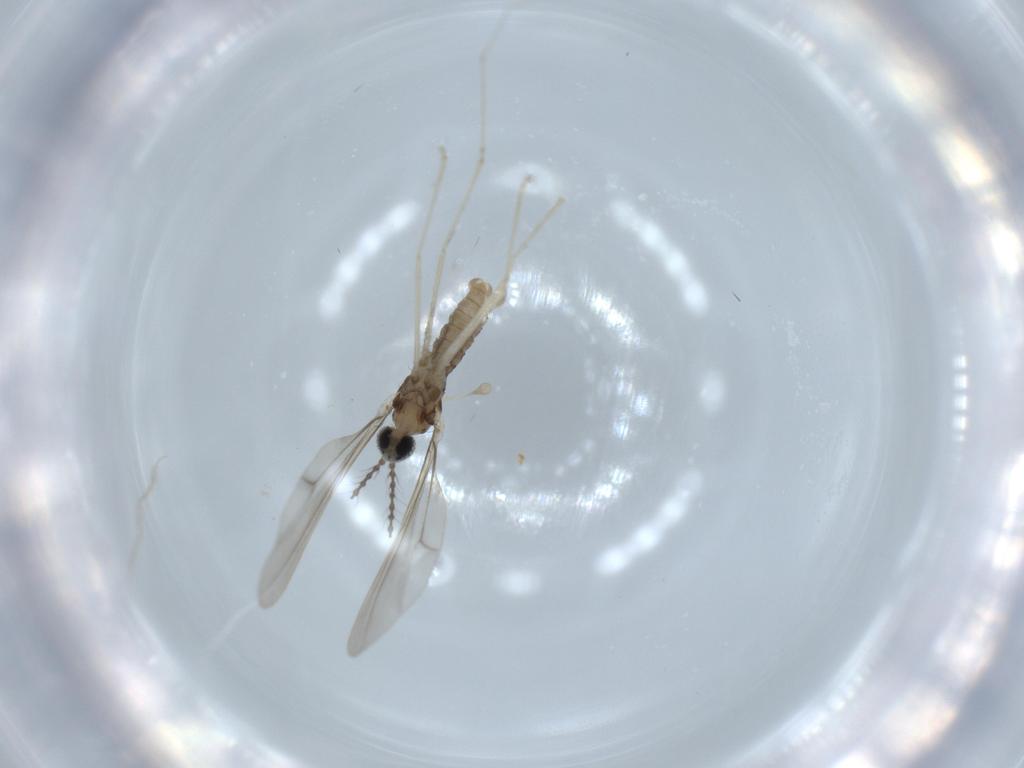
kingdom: Animalia
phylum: Arthropoda
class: Insecta
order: Diptera
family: Cecidomyiidae
